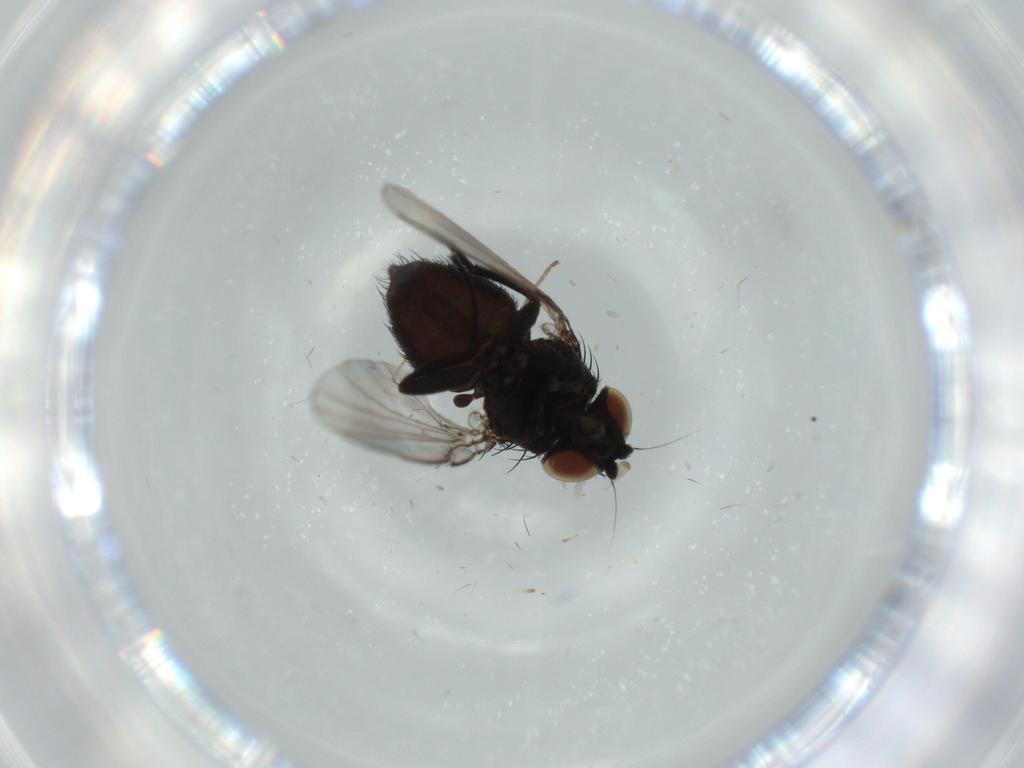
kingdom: Animalia
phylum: Arthropoda
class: Insecta
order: Diptera
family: Milichiidae
